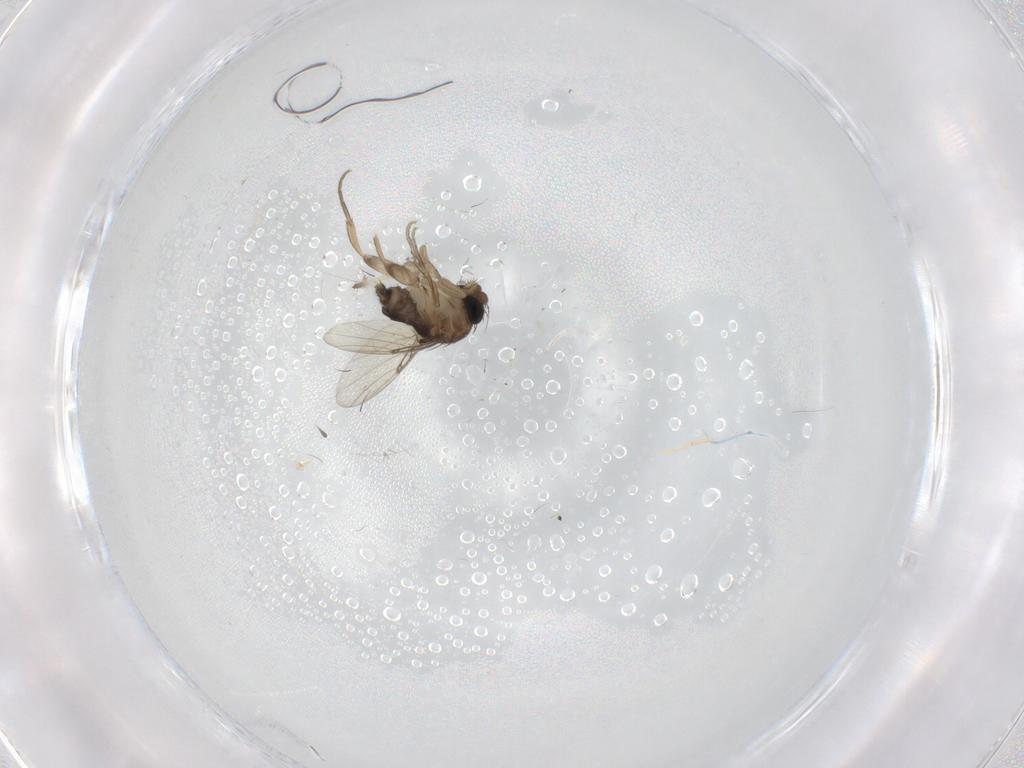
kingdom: Animalia
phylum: Arthropoda
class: Insecta
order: Diptera
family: Phoridae
